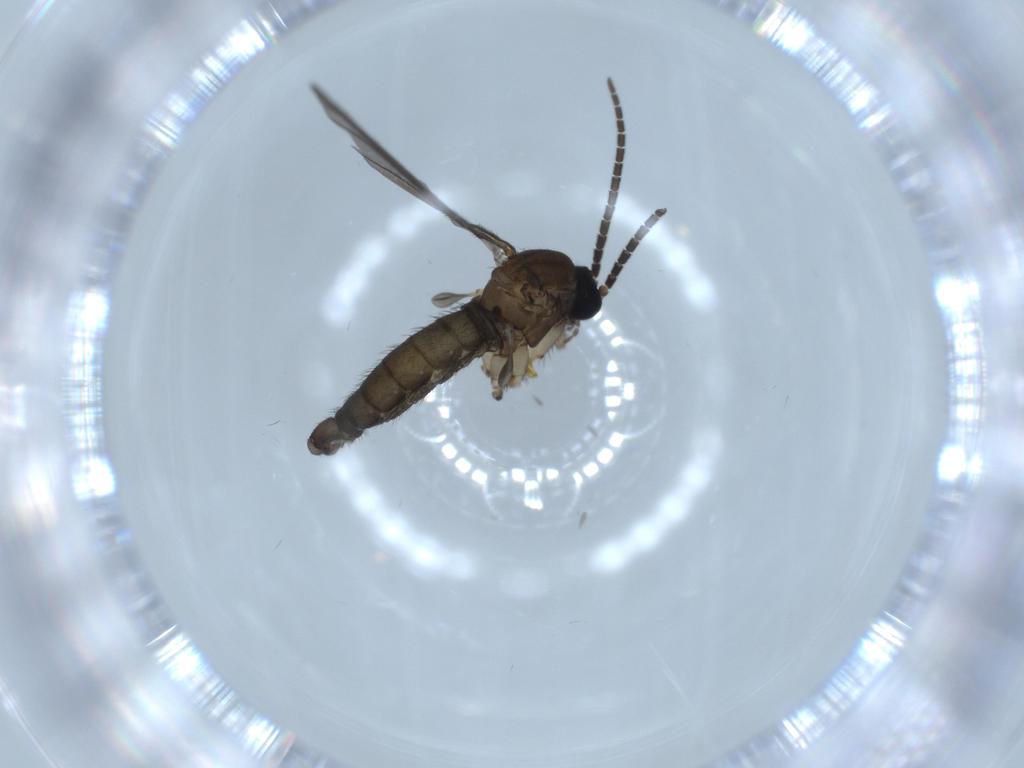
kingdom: Animalia
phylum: Arthropoda
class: Insecta
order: Diptera
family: Sciaridae
